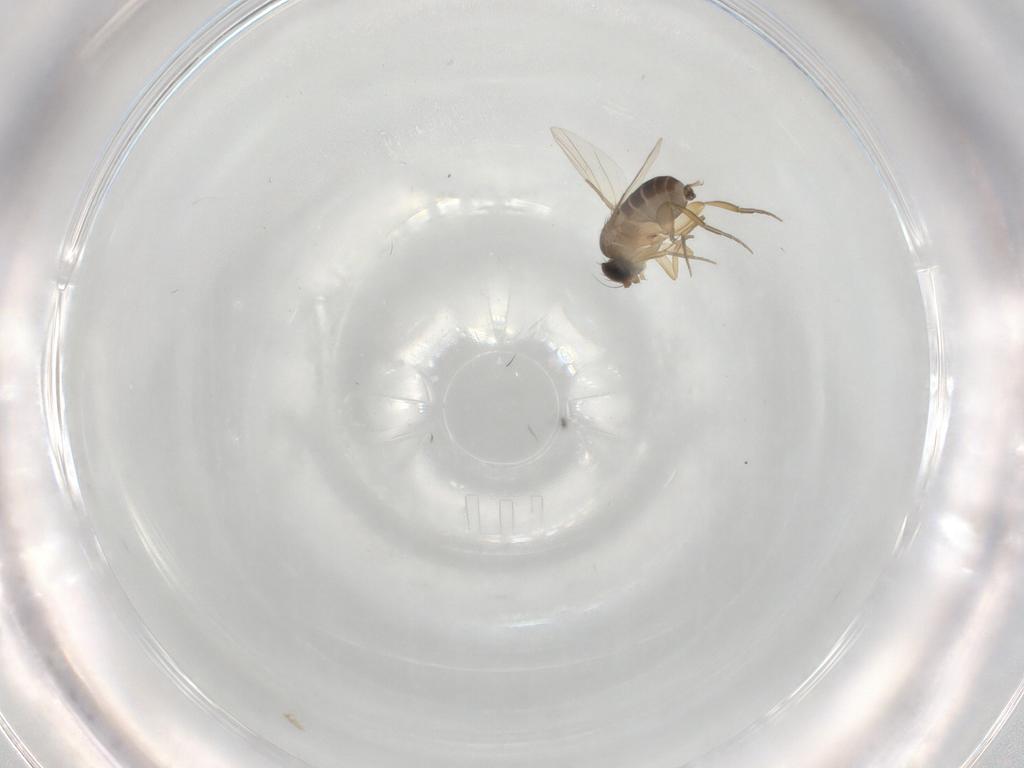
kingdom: Animalia
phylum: Arthropoda
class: Insecta
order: Diptera
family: Phoridae
